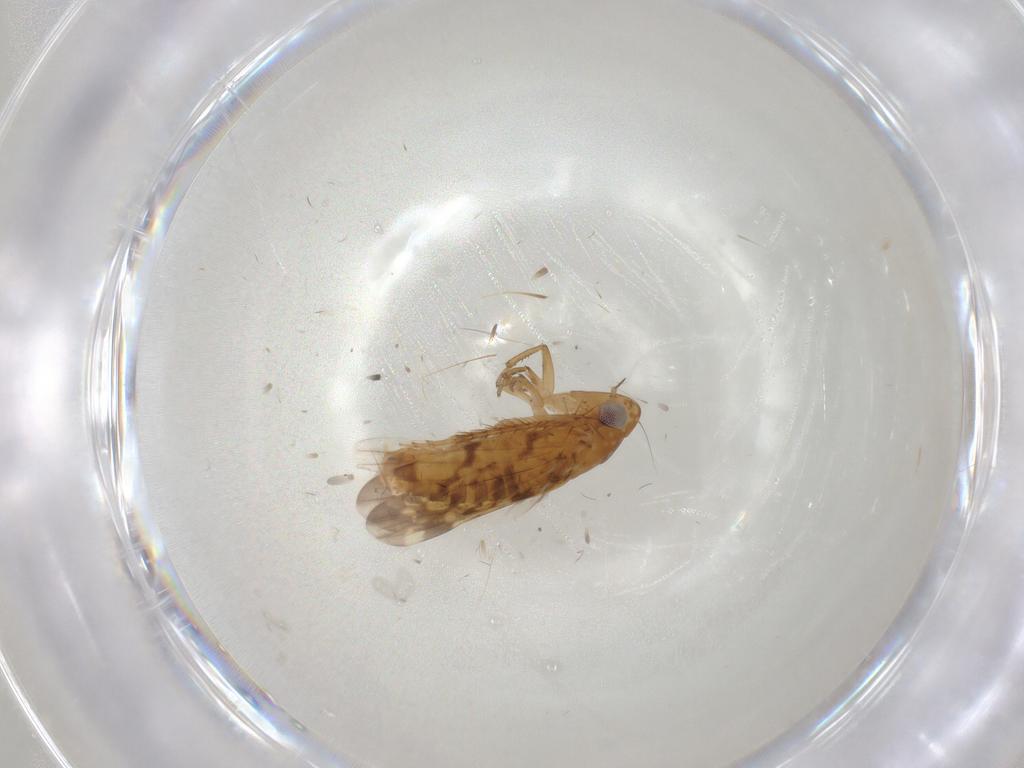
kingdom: Animalia
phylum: Arthropoda
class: Insecta
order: Hemiptera
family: Cicadellidae
